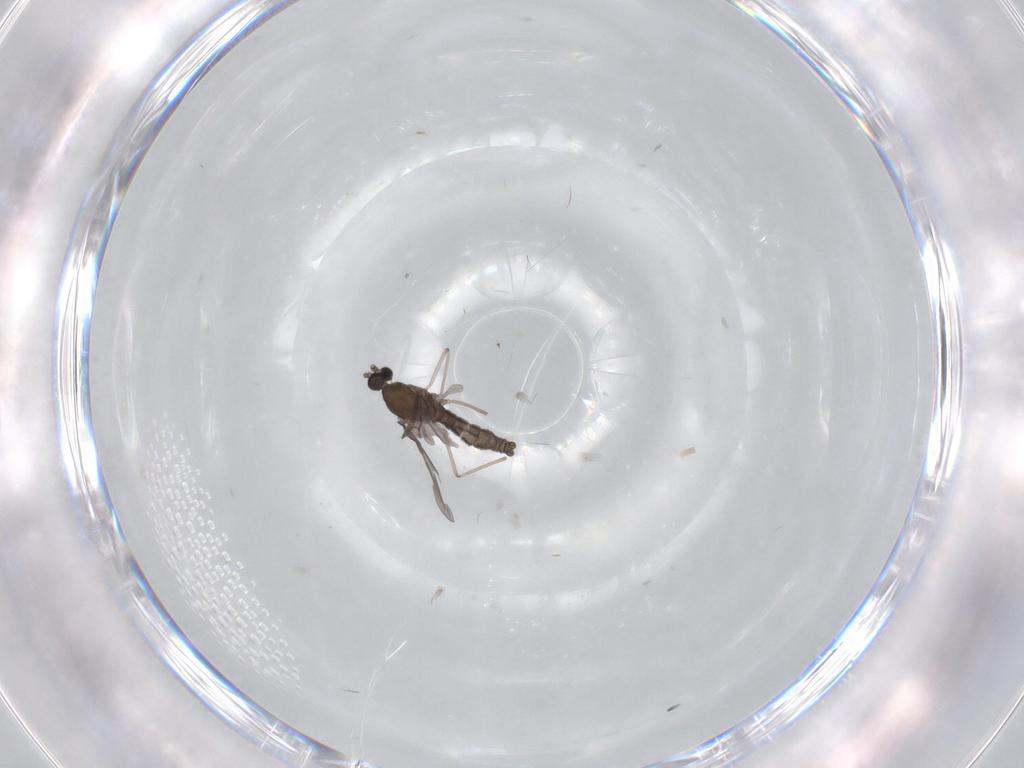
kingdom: Animalia
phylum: Arthropoda
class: Insecta
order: Diptera
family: Cecidomyiidae
